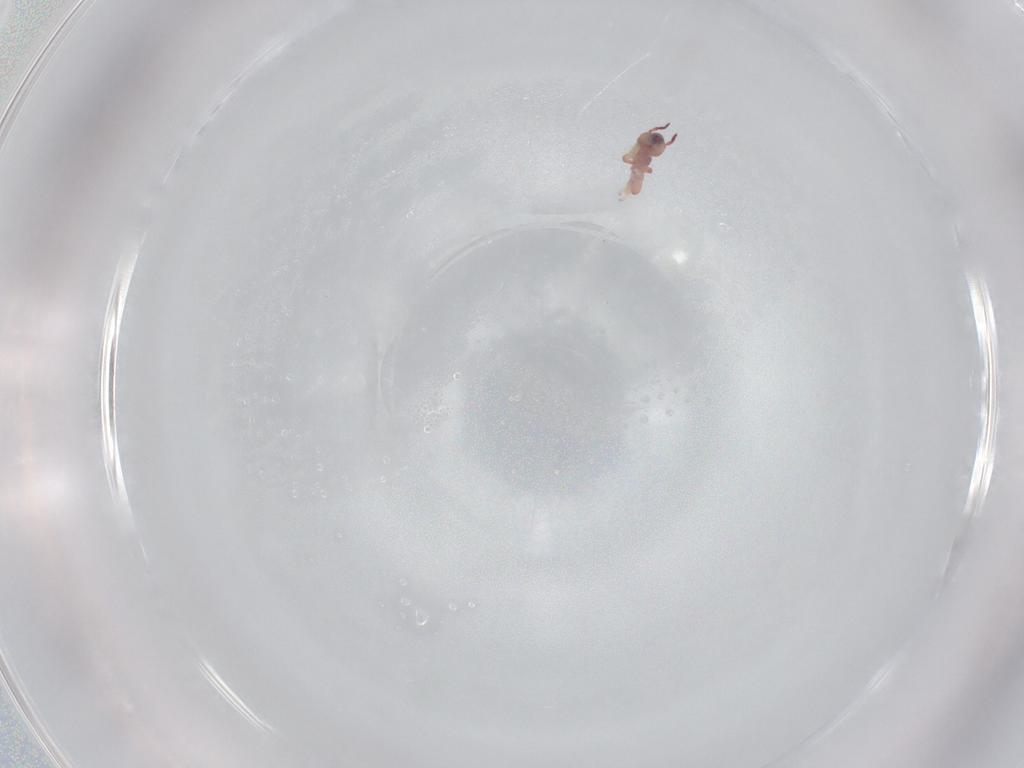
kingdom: Animalia
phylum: Arthropoda
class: Collembola
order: Symphypleona
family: Sminthurididae
